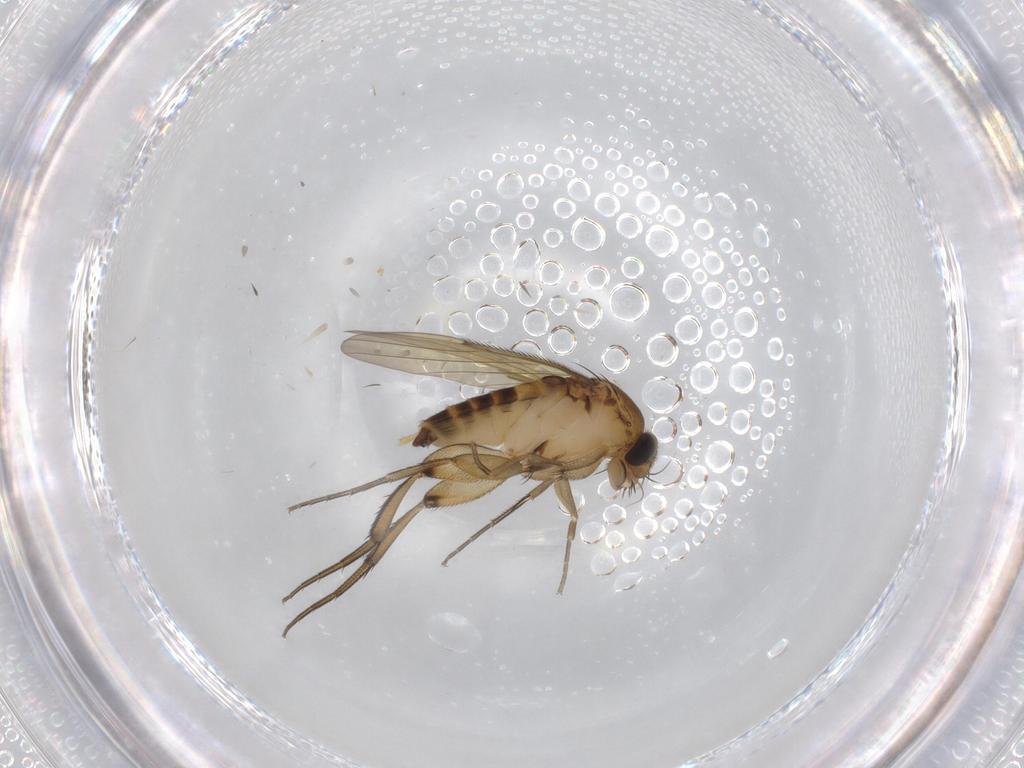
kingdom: Animalia
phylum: Arthropoda
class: Insecta
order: Diptera
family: Phoridae
